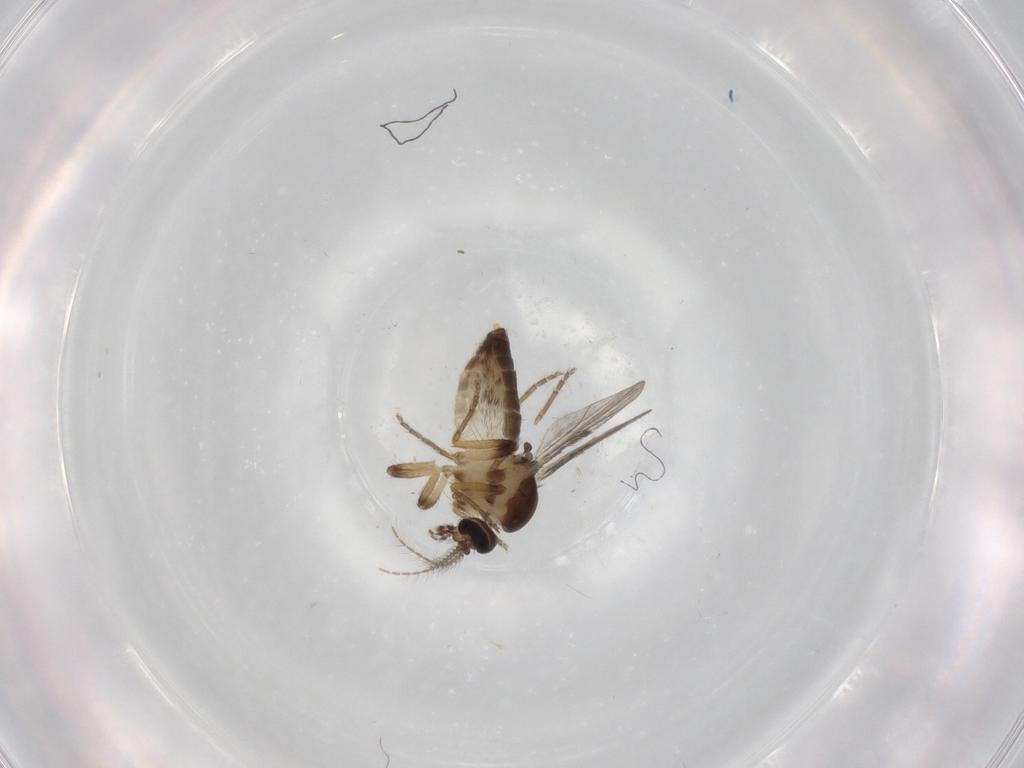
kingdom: Animalia
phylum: Arthropoda
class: Insecta
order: Diptera
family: Ceratopogonidae
